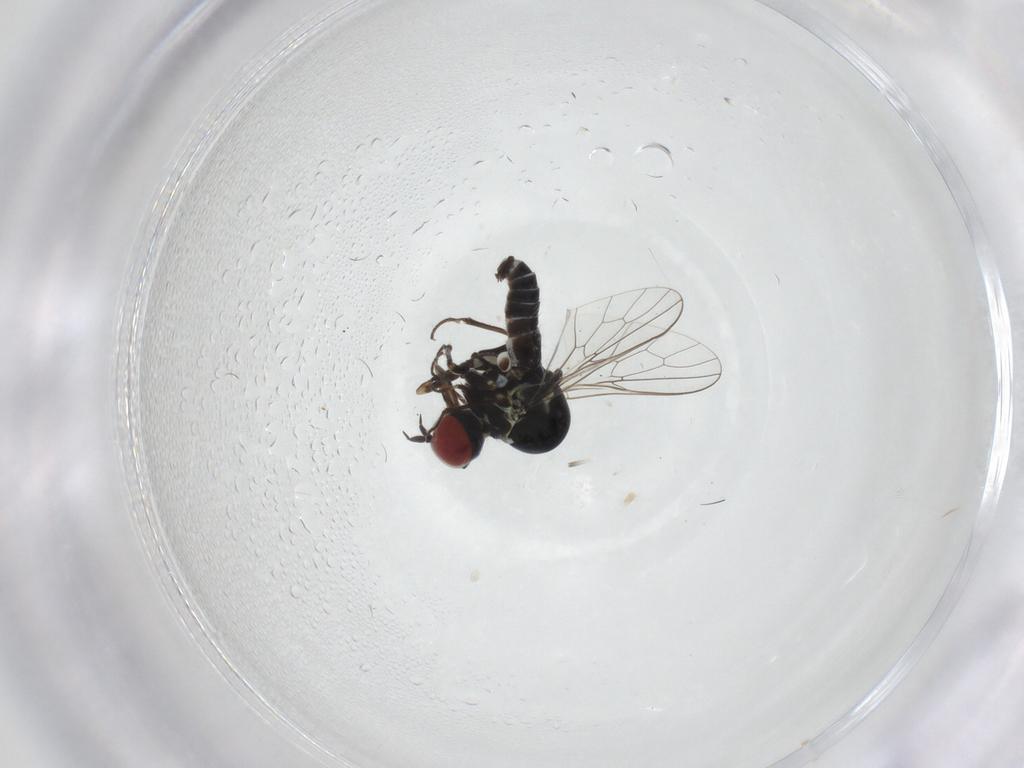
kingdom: Animalia
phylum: Arthropoda
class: Insecta
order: Diptera
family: Bombyliidae
